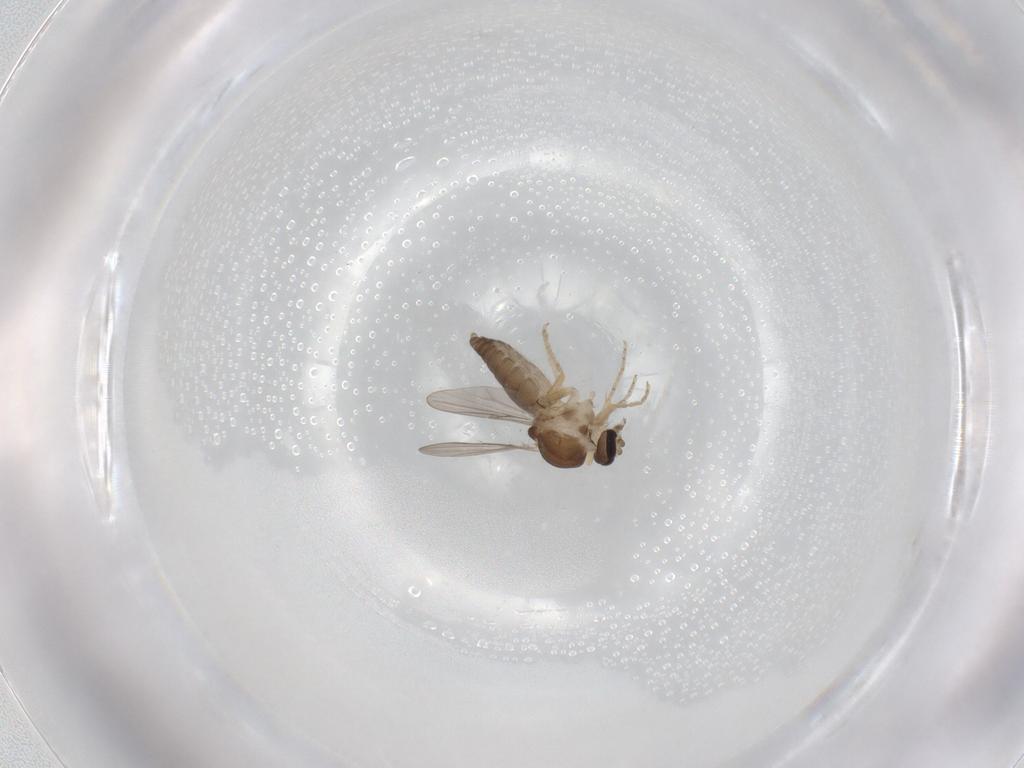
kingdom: Animalia
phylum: Arthropoda
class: Insecta
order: Diptera
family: Ceratopogonidae
